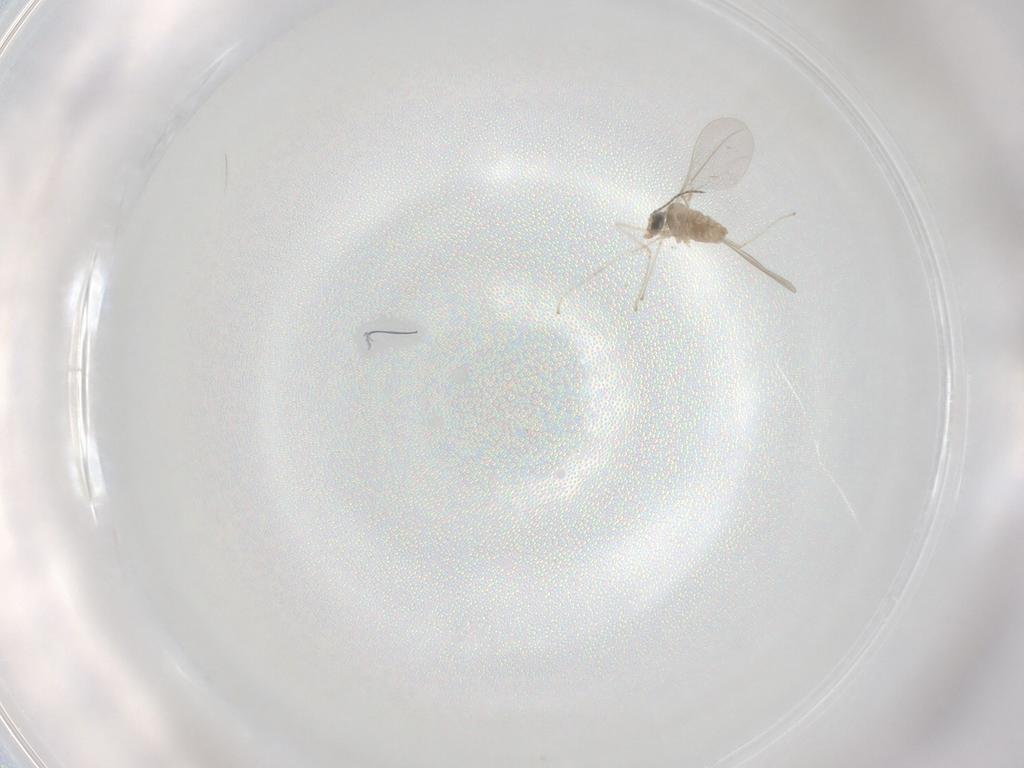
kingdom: Animalia
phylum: Arthropoda
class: Insecta
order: Diptera
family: Cecidomyiidae
